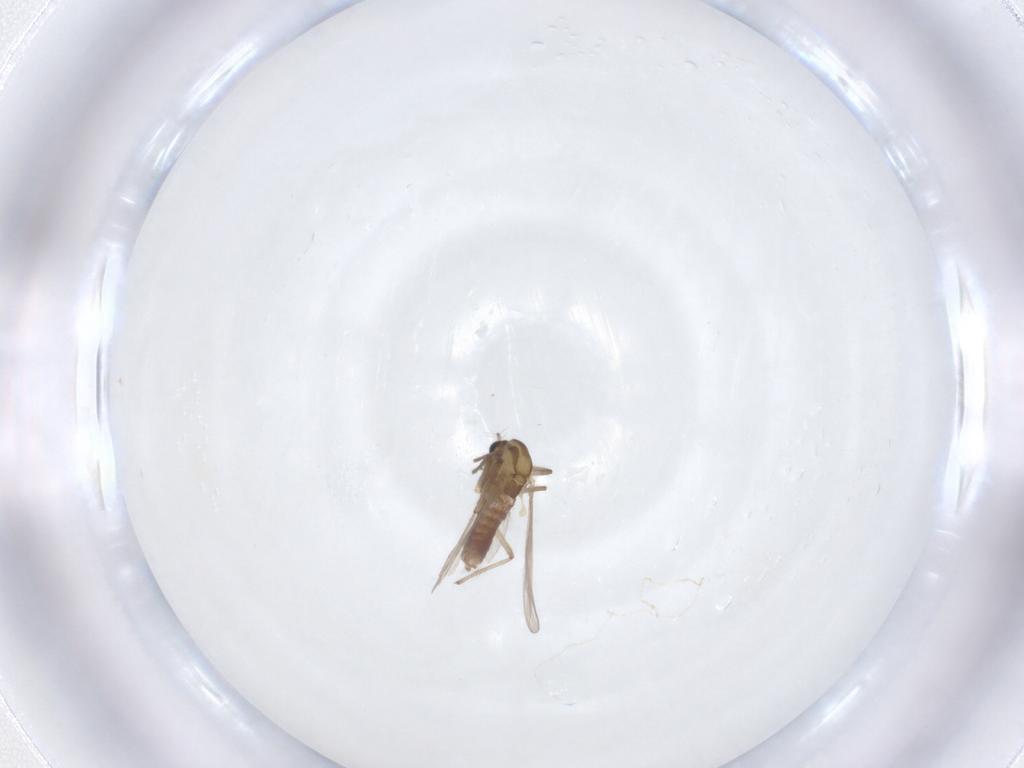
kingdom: Animalia
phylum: Arthropoda
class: Insecta
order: Diptera
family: Chironomidae
